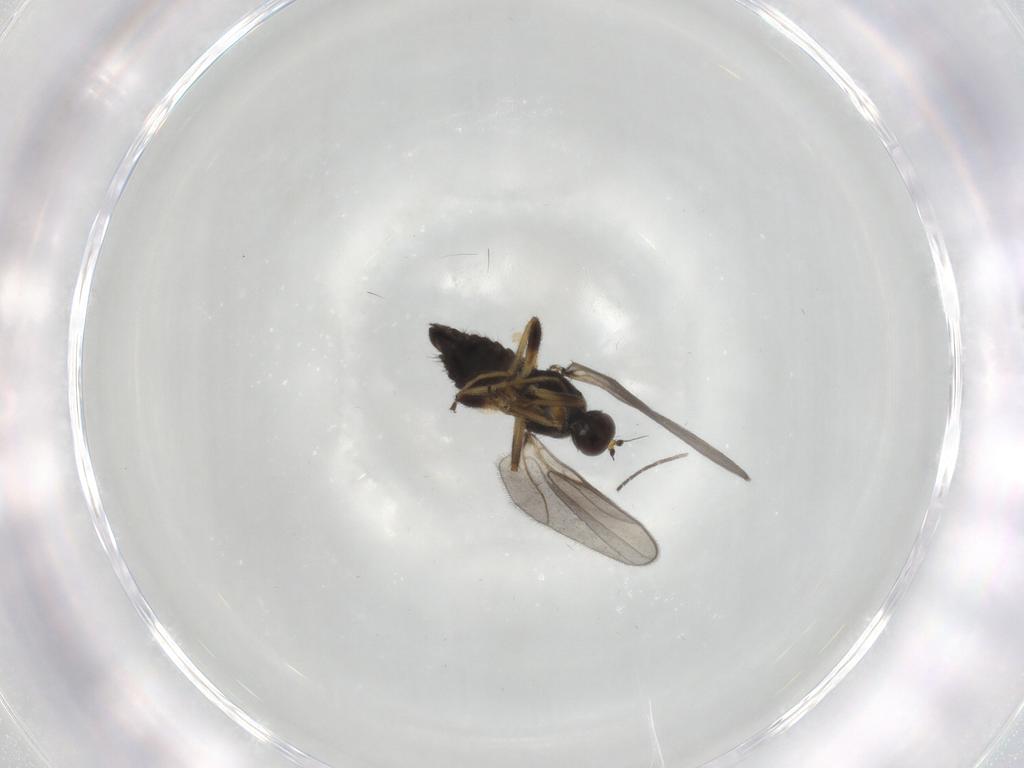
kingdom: Animalia
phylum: Arthropoda
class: Insecta
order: Diptera
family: Hybotidae
